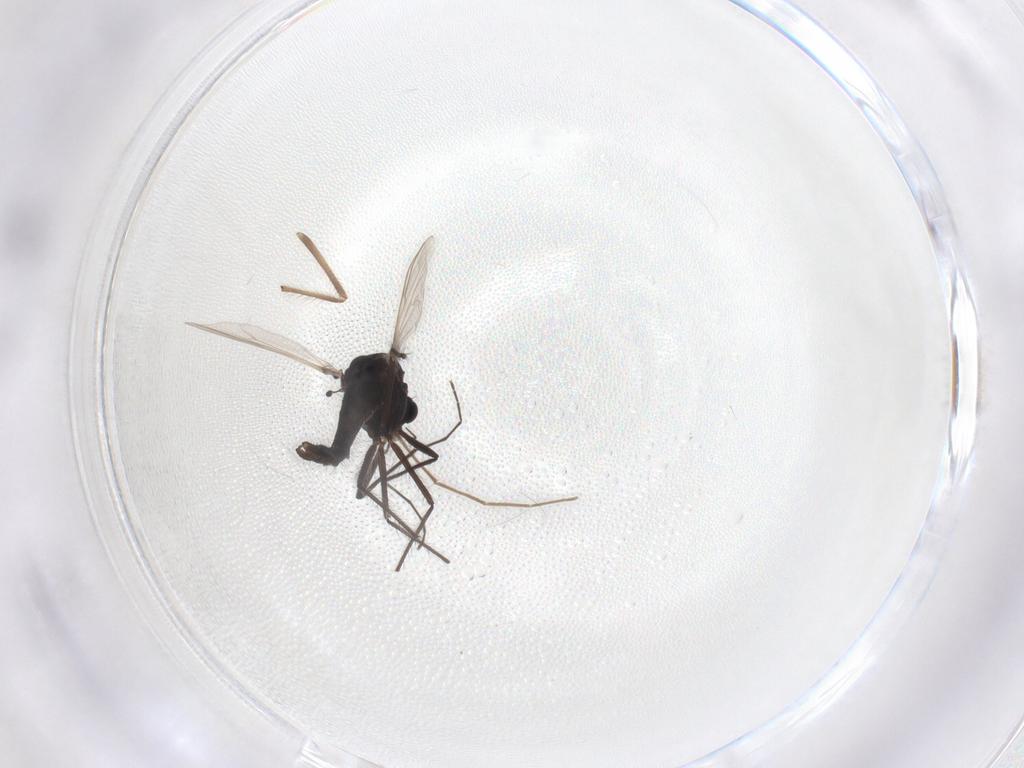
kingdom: Animalia
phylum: Arthropoda
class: Insecta
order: Diptera
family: Chironomidae
